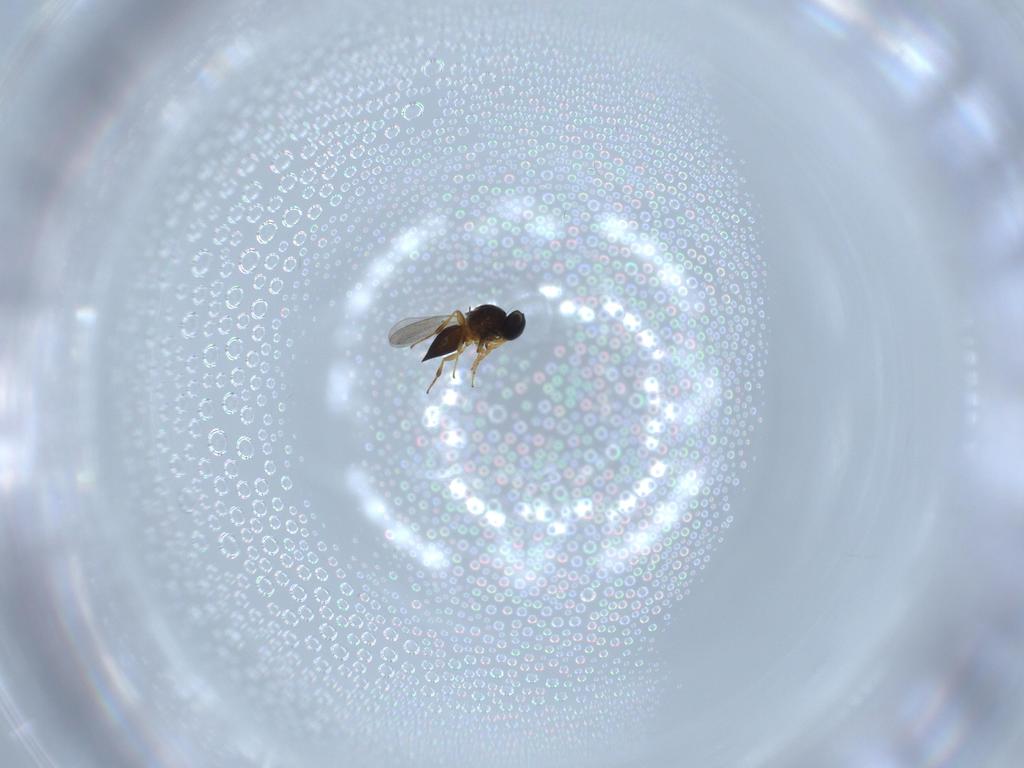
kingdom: Animalia
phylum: Arthropoda
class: Insecta
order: Hymenoptera
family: Platygastridae
